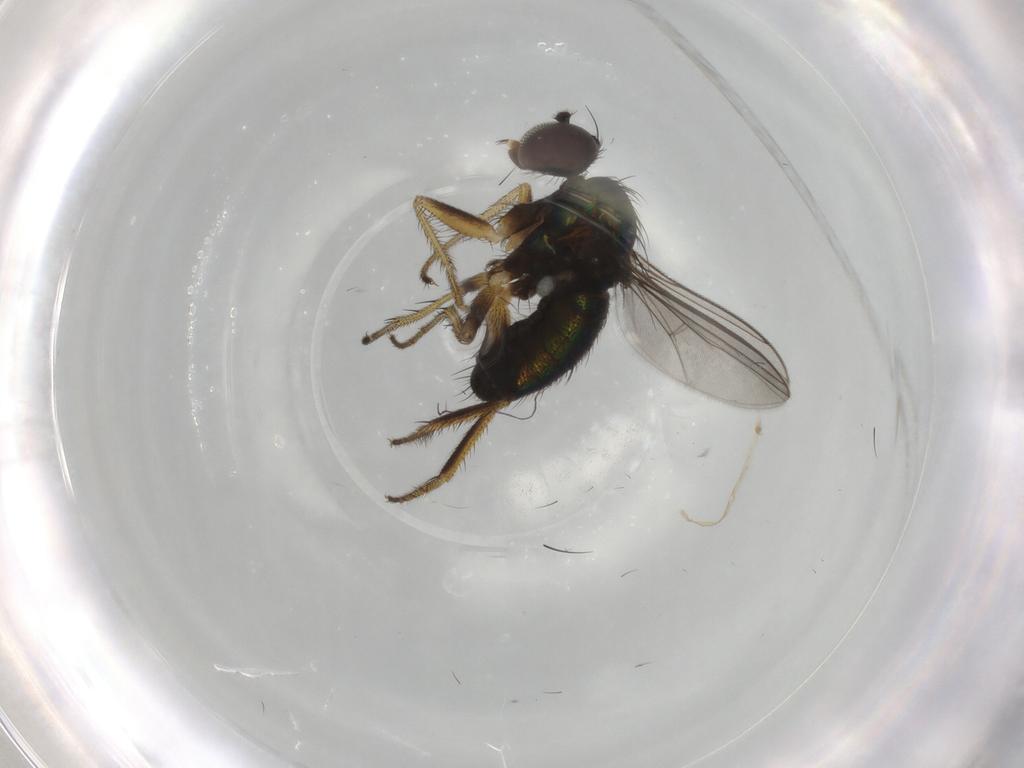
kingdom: Animalia
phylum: Arthropoda
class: Insecta
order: Diptera
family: Dolichopodidae
